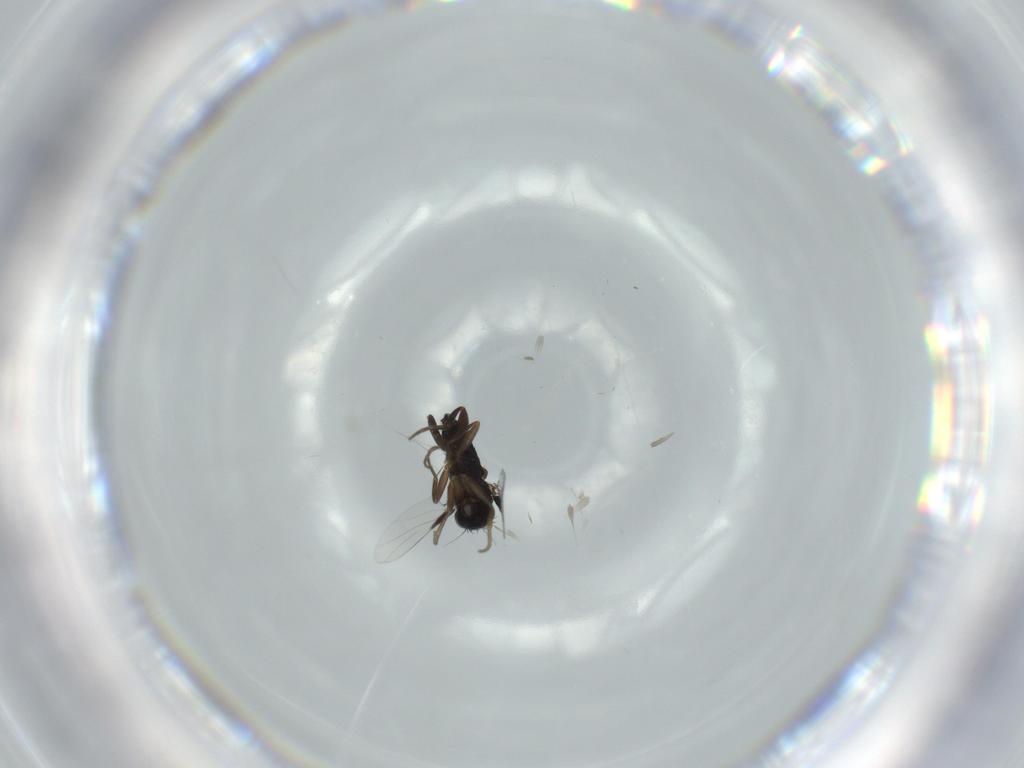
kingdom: Animalia
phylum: Arthropoda
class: Insecta
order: Diptera
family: Phoridae
